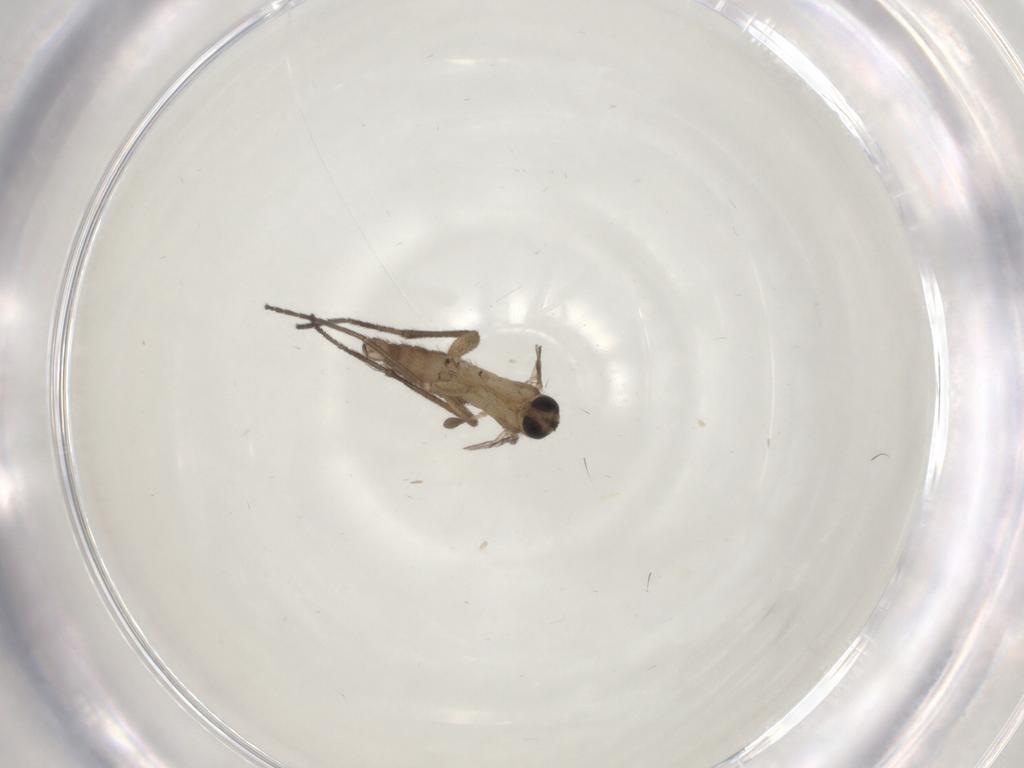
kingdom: Animalia
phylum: Arthropoda
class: Insecta
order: Diptera
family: Sciaridae
